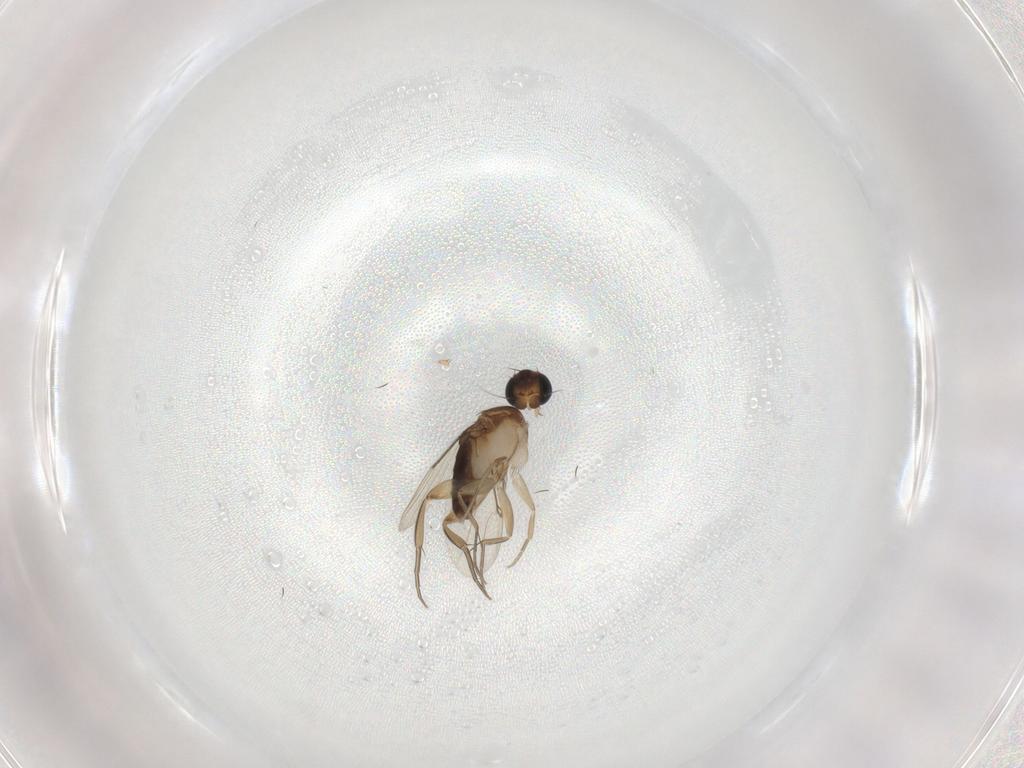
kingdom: Animalia
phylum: Arthropoda
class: Insecta
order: Diptera
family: Phoridae
